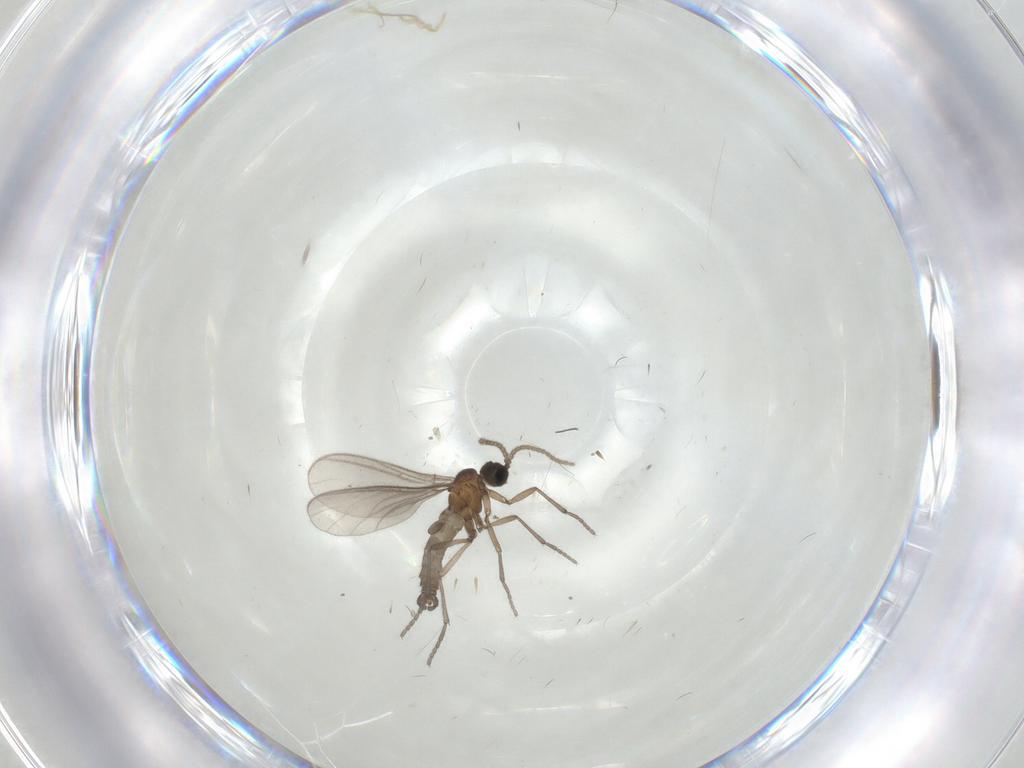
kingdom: Animalia
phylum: Arthropoda
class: Insecta
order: Diptera
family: Sciaridae
